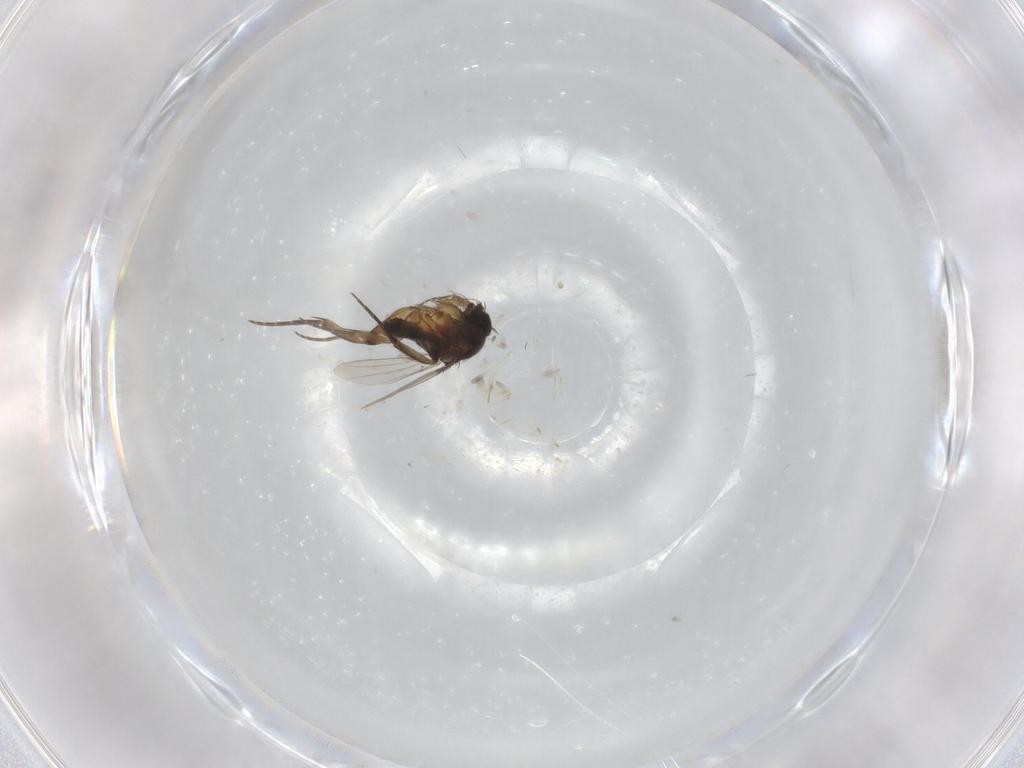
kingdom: Animalia
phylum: Arthropoda
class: Insecta
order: Diptera
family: Phoridae
